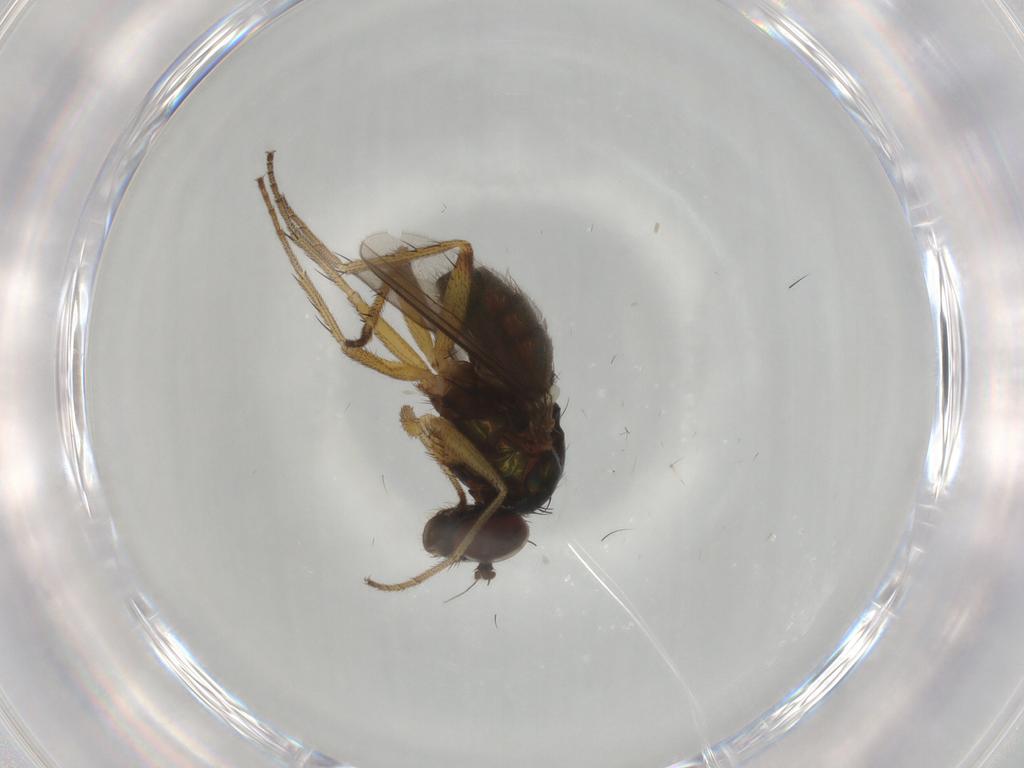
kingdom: Animalia
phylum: Arthropoda
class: Insecta
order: Diptera
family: Dolichopodidae
